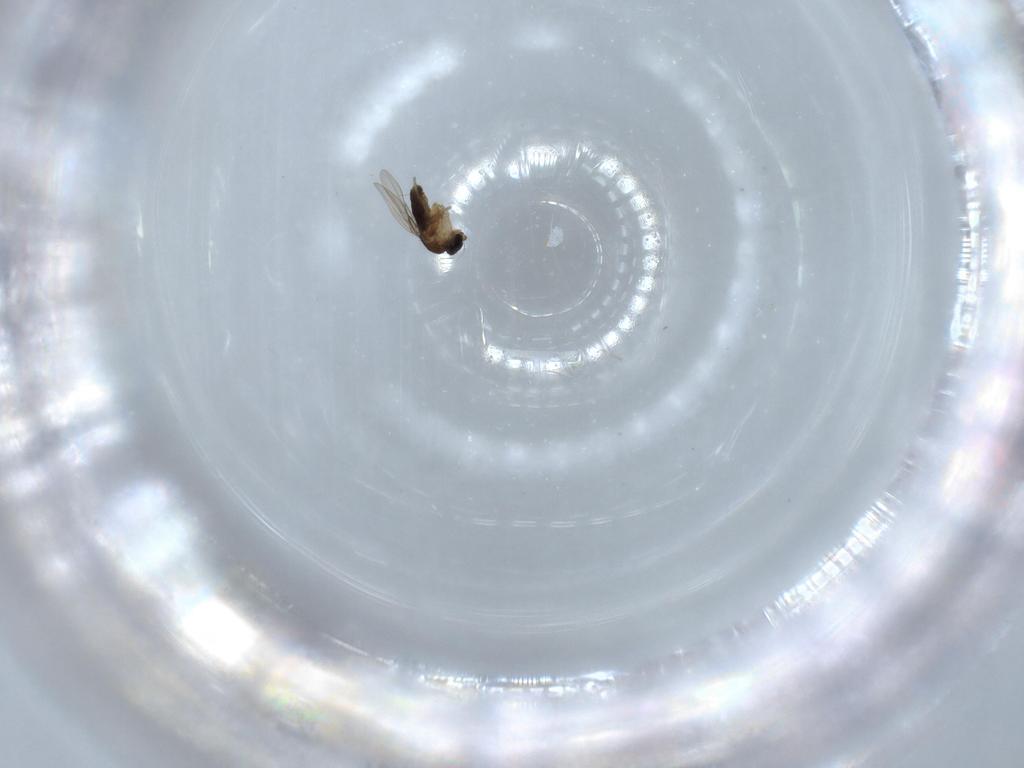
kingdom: Animalia
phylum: Arthropoda
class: Insecta
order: Diptera
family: Phoridae
